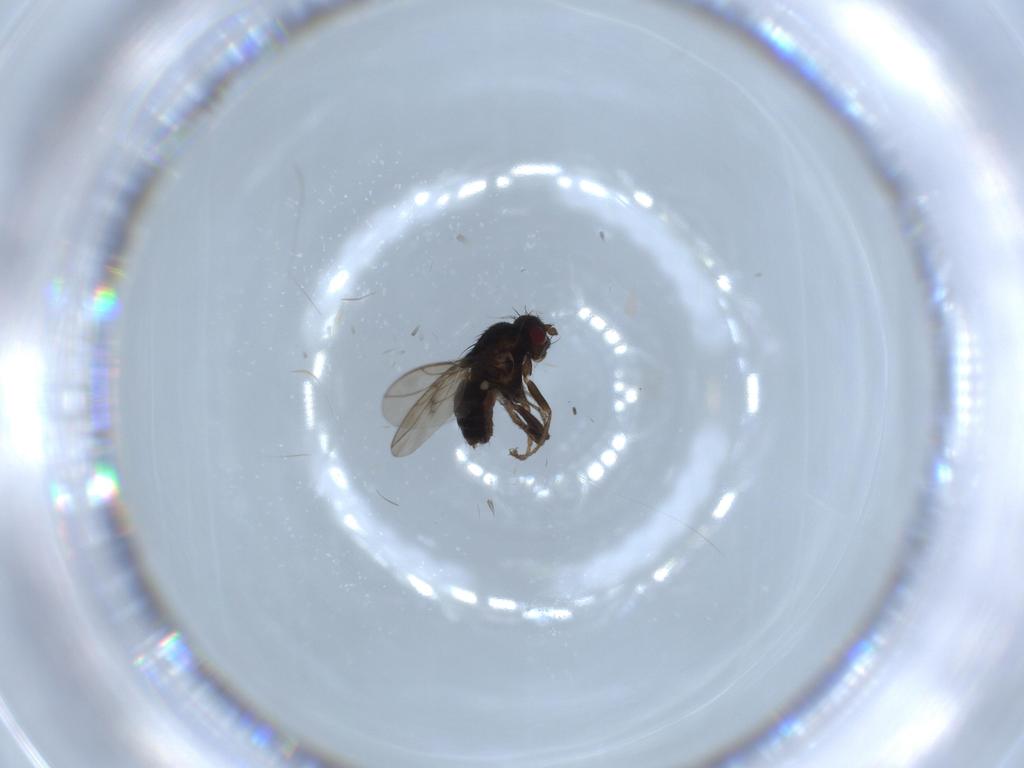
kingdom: Animalia
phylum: Arthropoda
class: Insecta
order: Diptera
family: Sphaeroceridae
